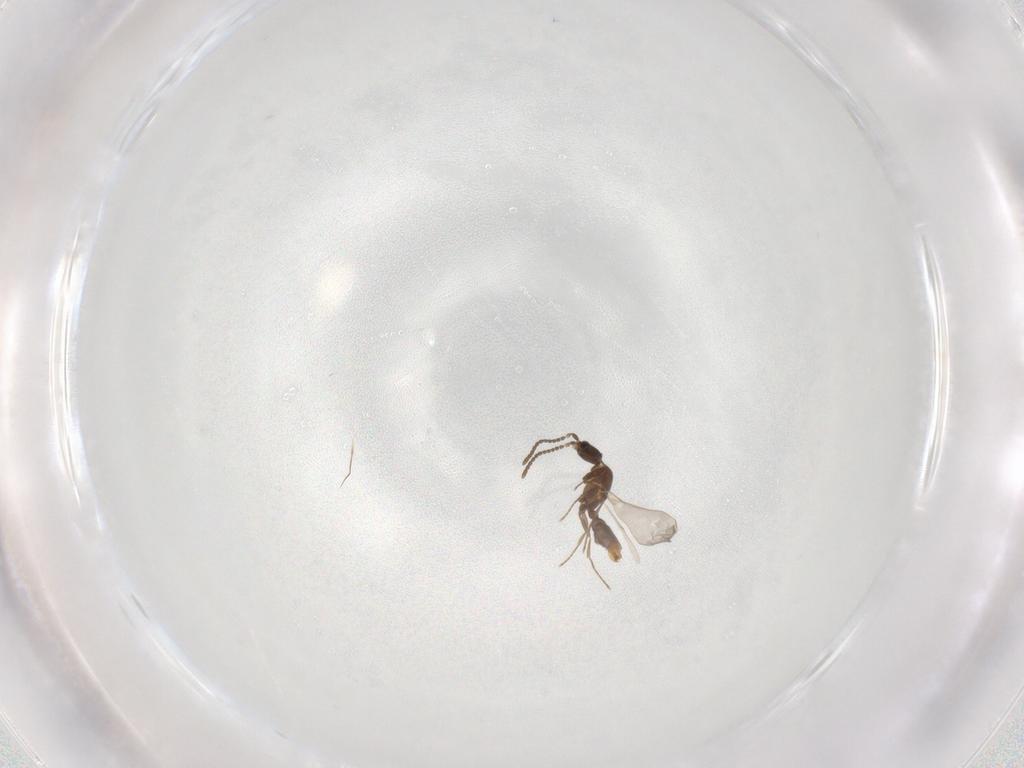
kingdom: Animalia
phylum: Arthropoda
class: Insecta
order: Hymenoptera
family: Formicidae
